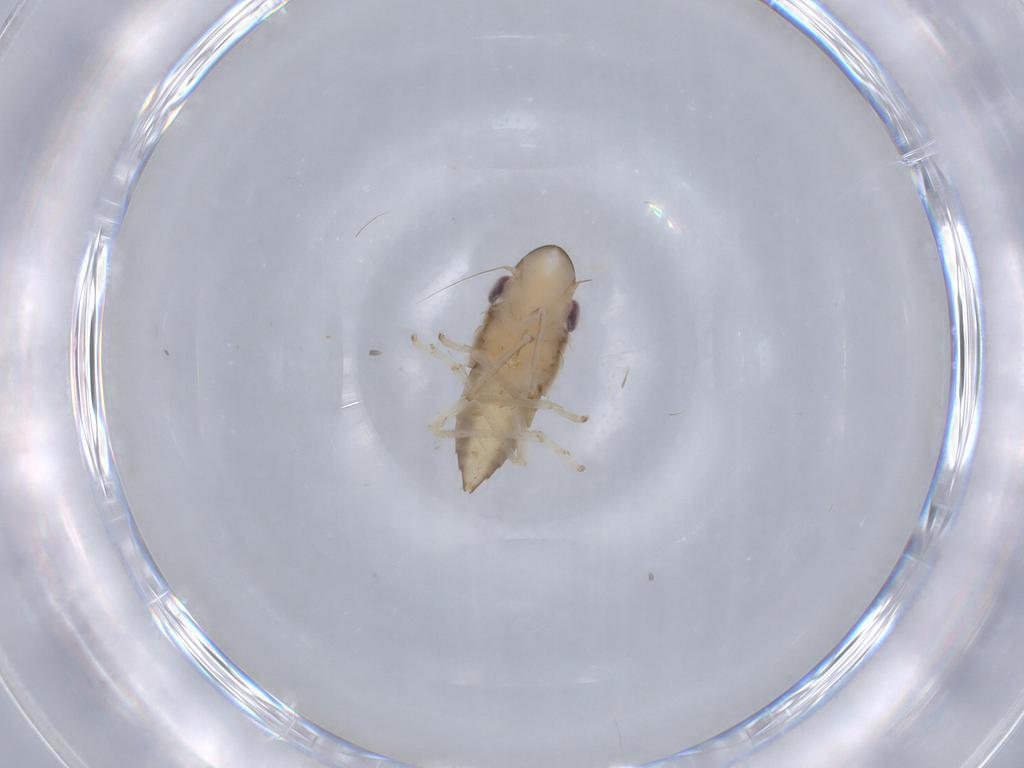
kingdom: Animalia
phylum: Arthropoda
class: Insecta
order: Hemiptera
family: Cicadellidae
